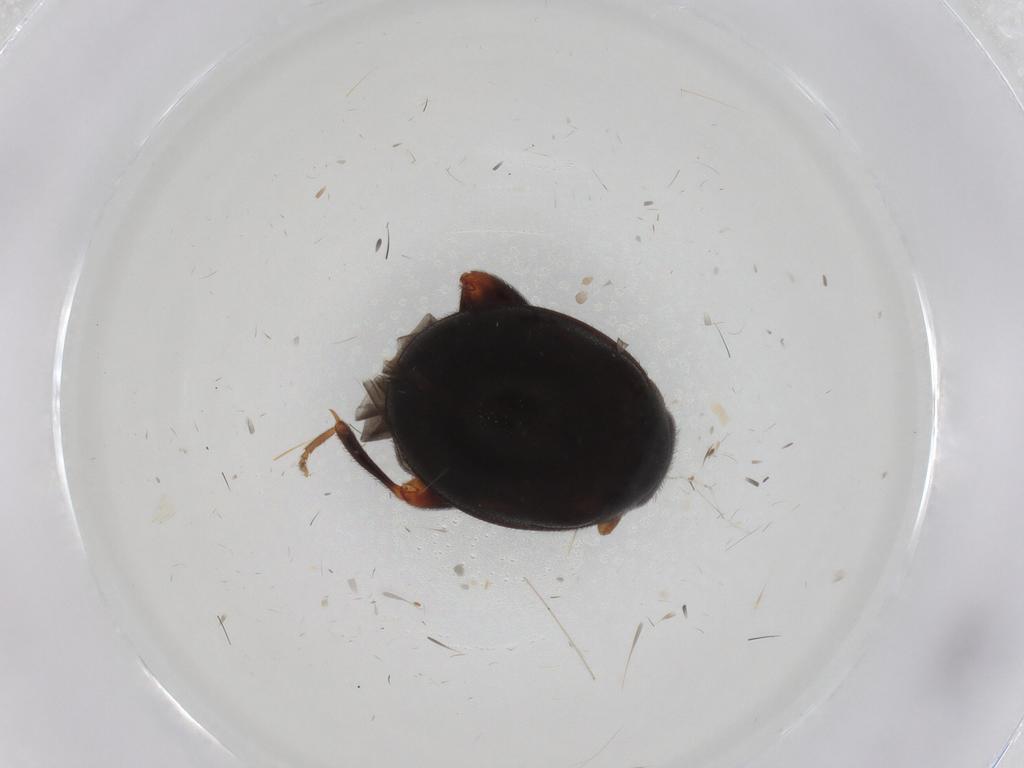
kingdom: Animalia
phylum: Arthropoda
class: Insecta
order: Coleoptera
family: Scirtidae
